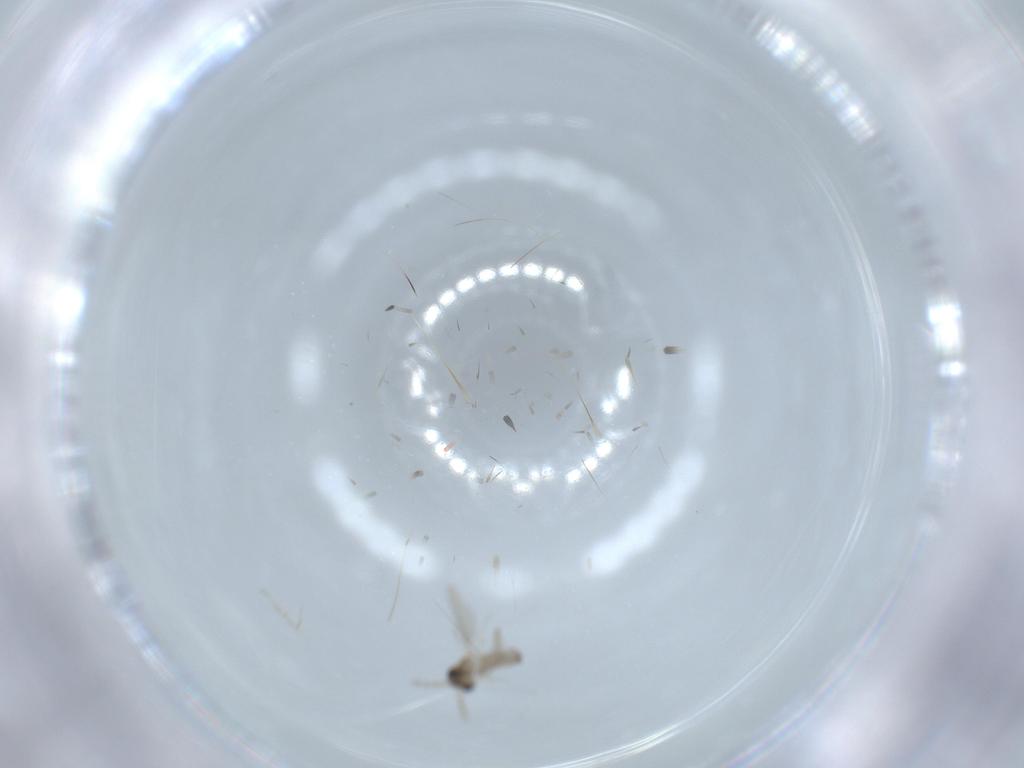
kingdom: Animalia
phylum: Arthropoda
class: Insecta
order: Diptera
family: Cecidomyiidae
